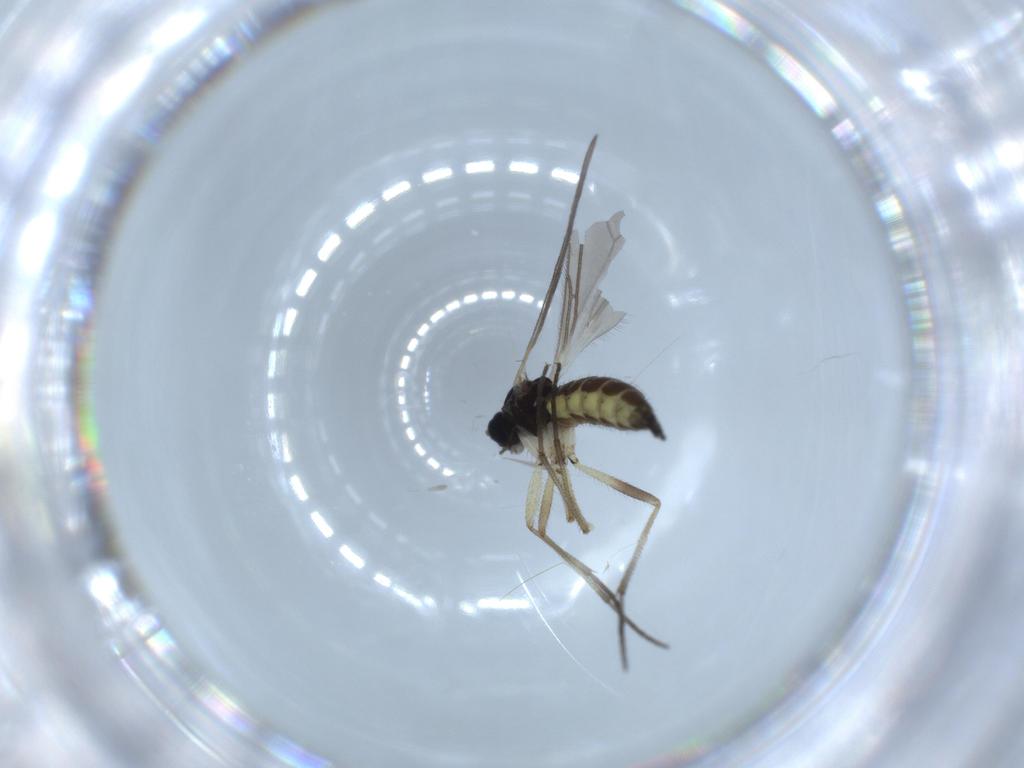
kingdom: Animalia
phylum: Arthropoda
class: Insecta
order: Diptera
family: Sciaridae
